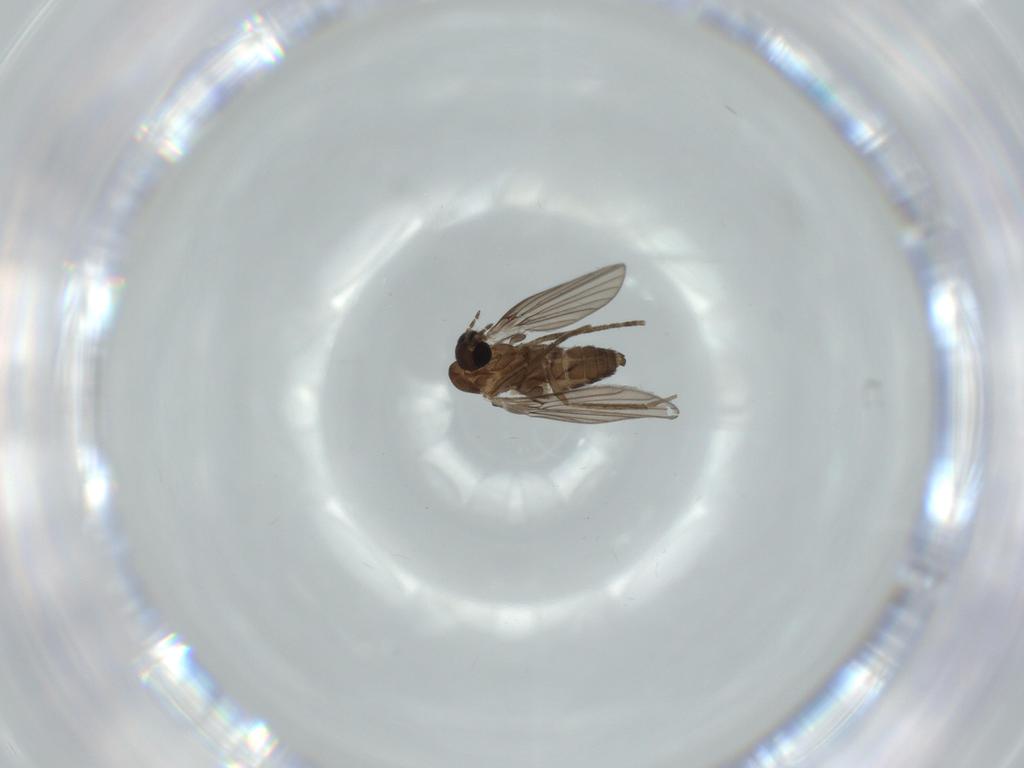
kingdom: Animalia
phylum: Arthropoda
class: Insecta
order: Diptera
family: Psychodidae
